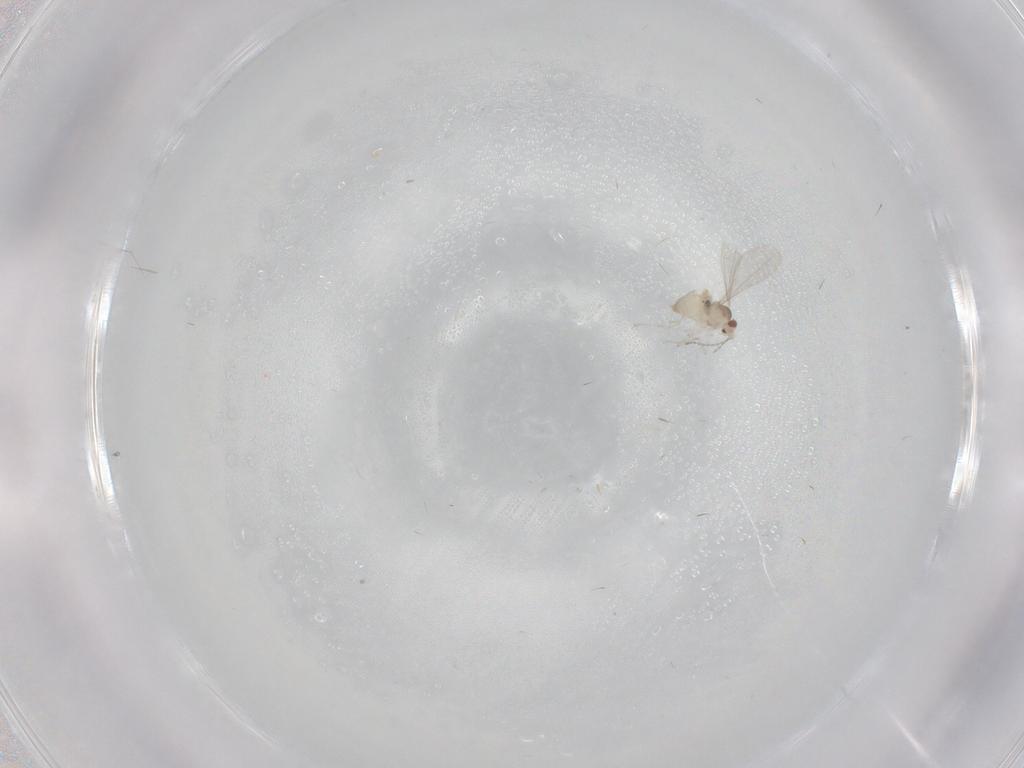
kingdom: Animalia
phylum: Arthropoda
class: Insecta
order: Diptera
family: Cecidomyiidae
